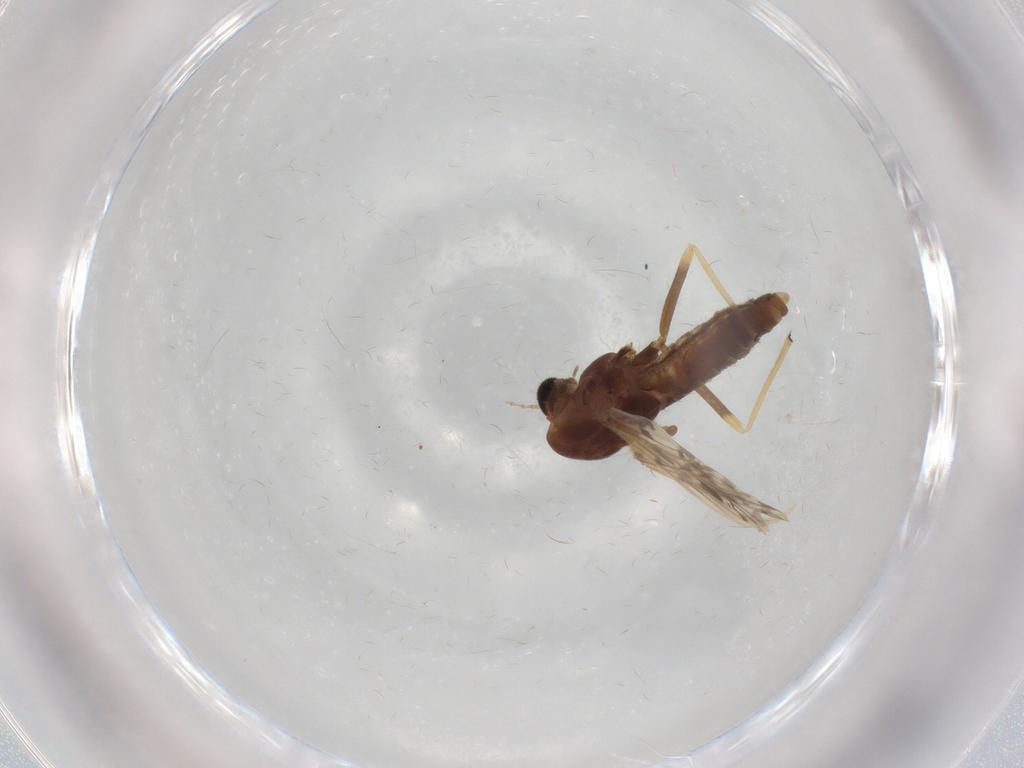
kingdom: Animalia
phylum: Arthropoda
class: Insecta
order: Diptera
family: Chironomidae
